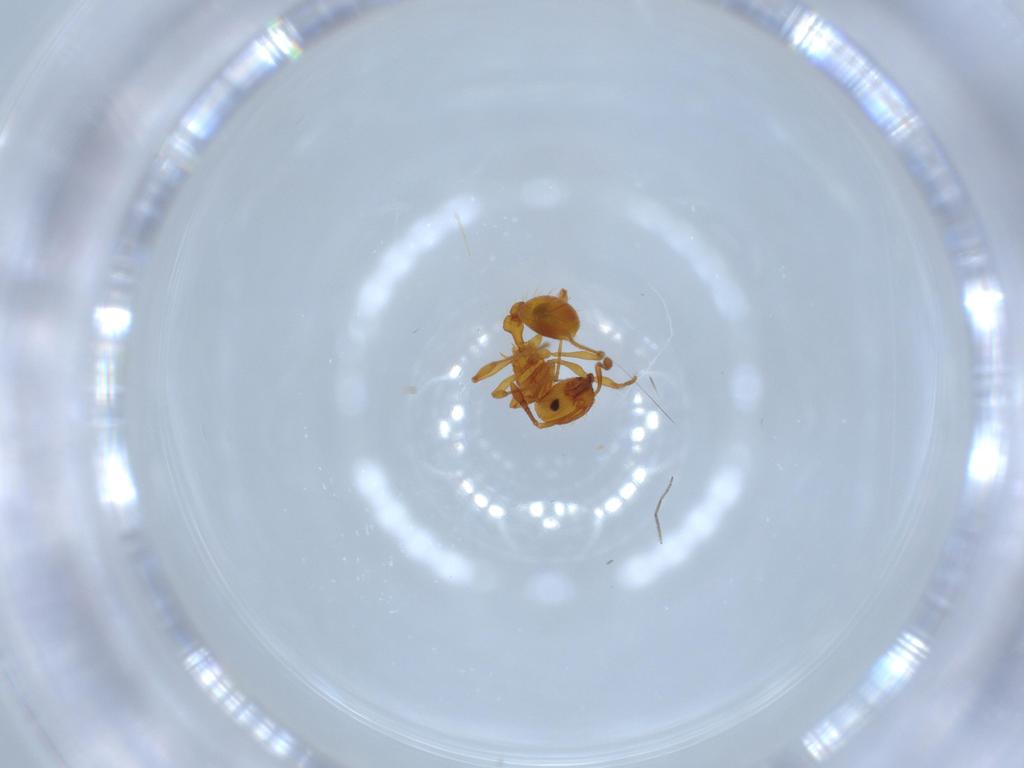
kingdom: Animalia
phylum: Arthropoda
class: Insecta
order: Hymenoptera
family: Formicidae
